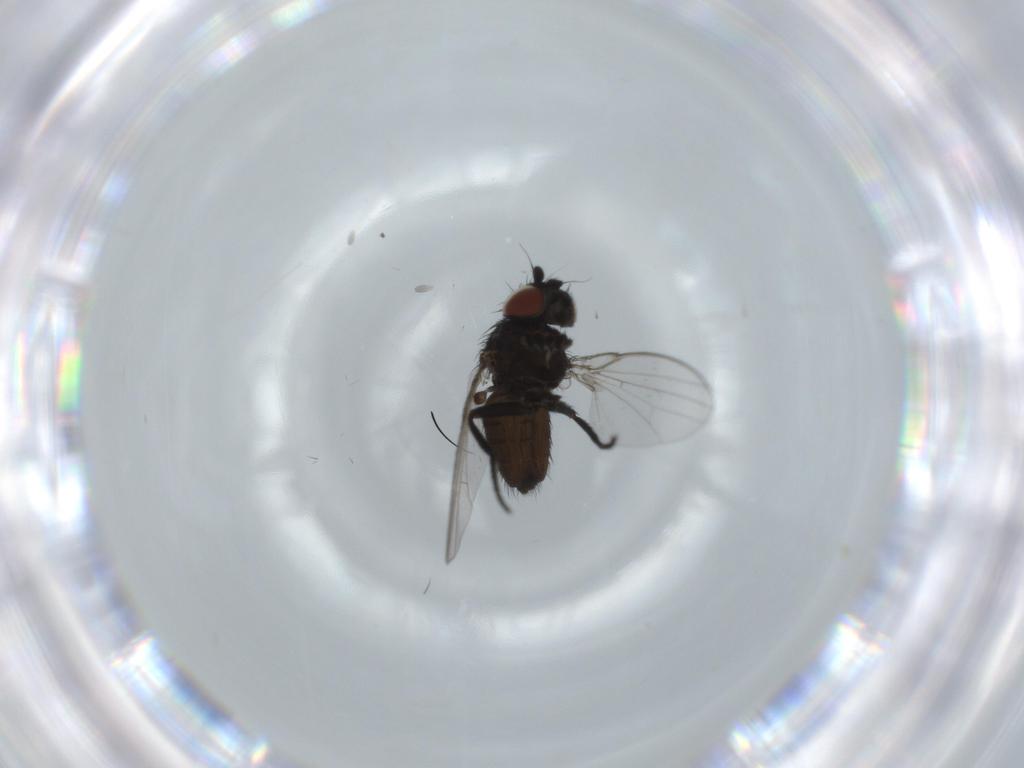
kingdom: Animalia
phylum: Arthropoda
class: Insecta
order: Diptera
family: Milichiidae
